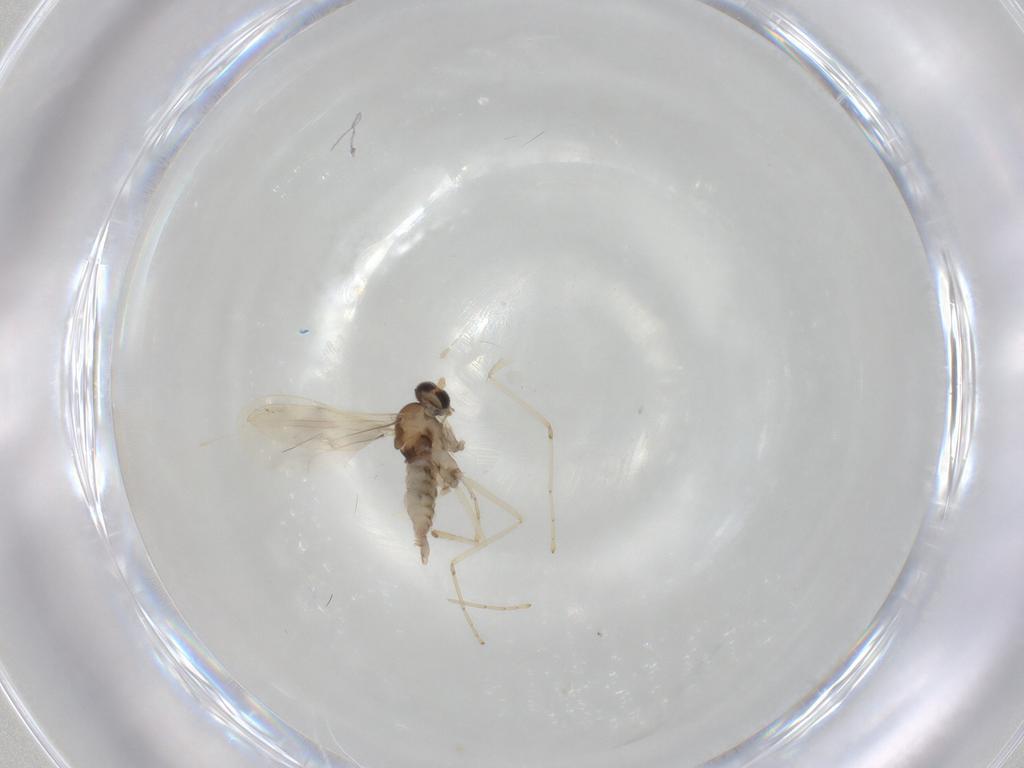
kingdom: Animalia
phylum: Arthropoda
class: Insecta
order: Diptera
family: Cecidomyiidae
